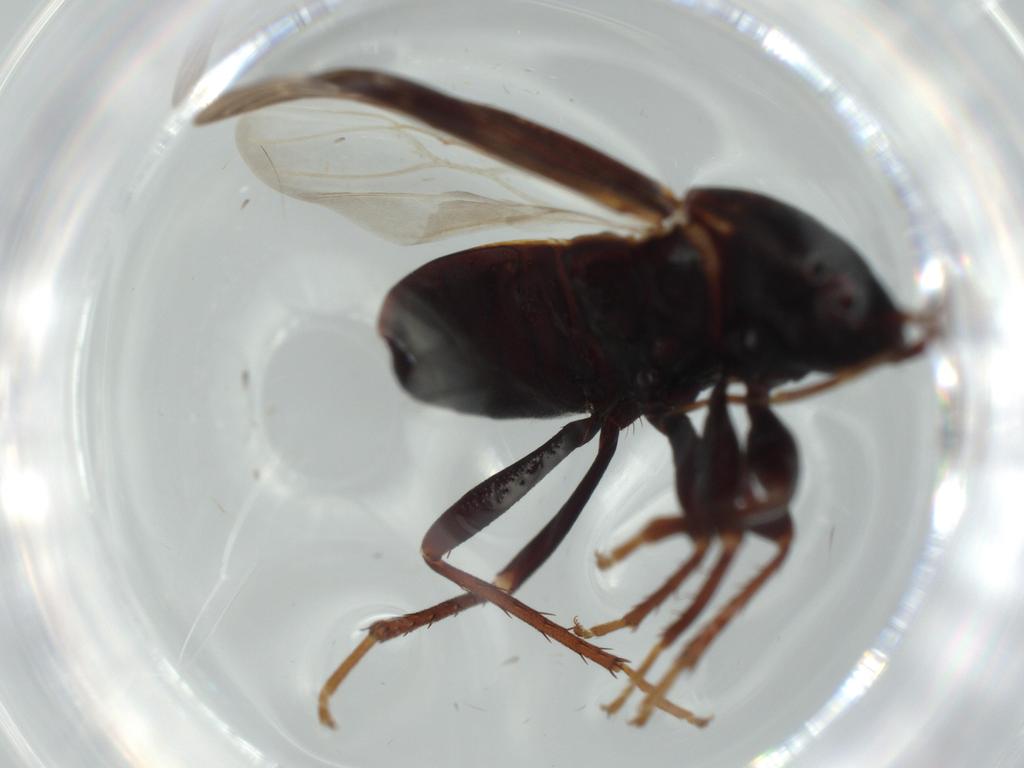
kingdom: Animalia
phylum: Arthropoda
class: Insecta
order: Hemiptera
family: Rhyparochromidae
